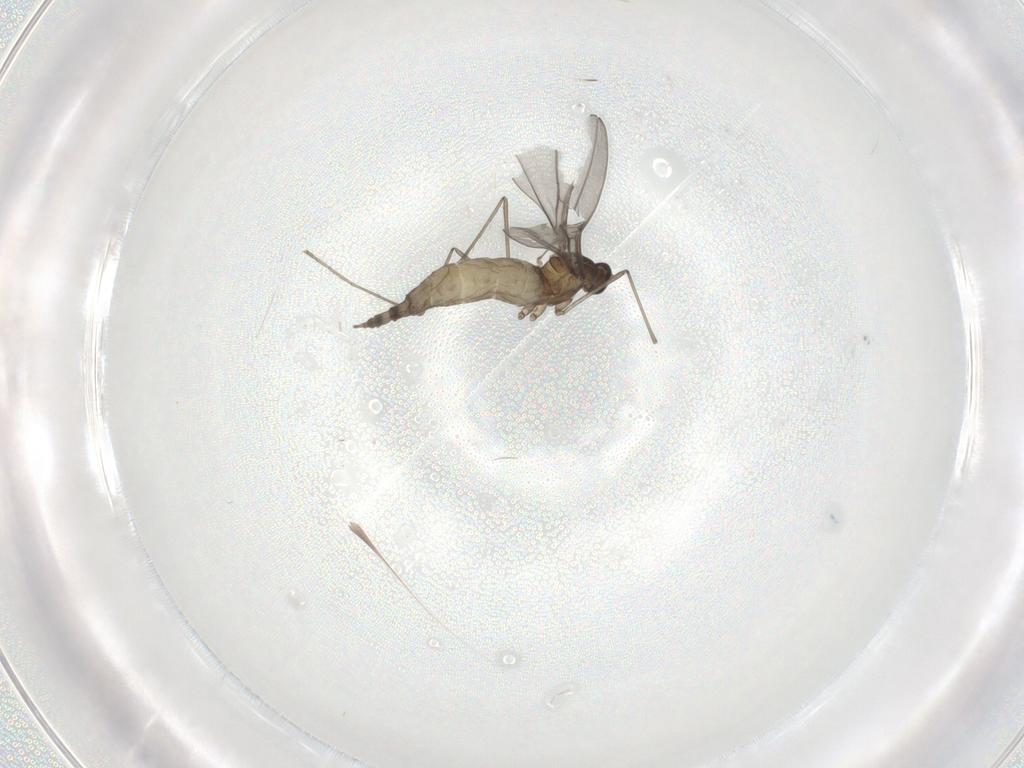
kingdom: Animalia
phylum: Arthropoda
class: Insecta
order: Diptera
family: Cecidomyiidae
